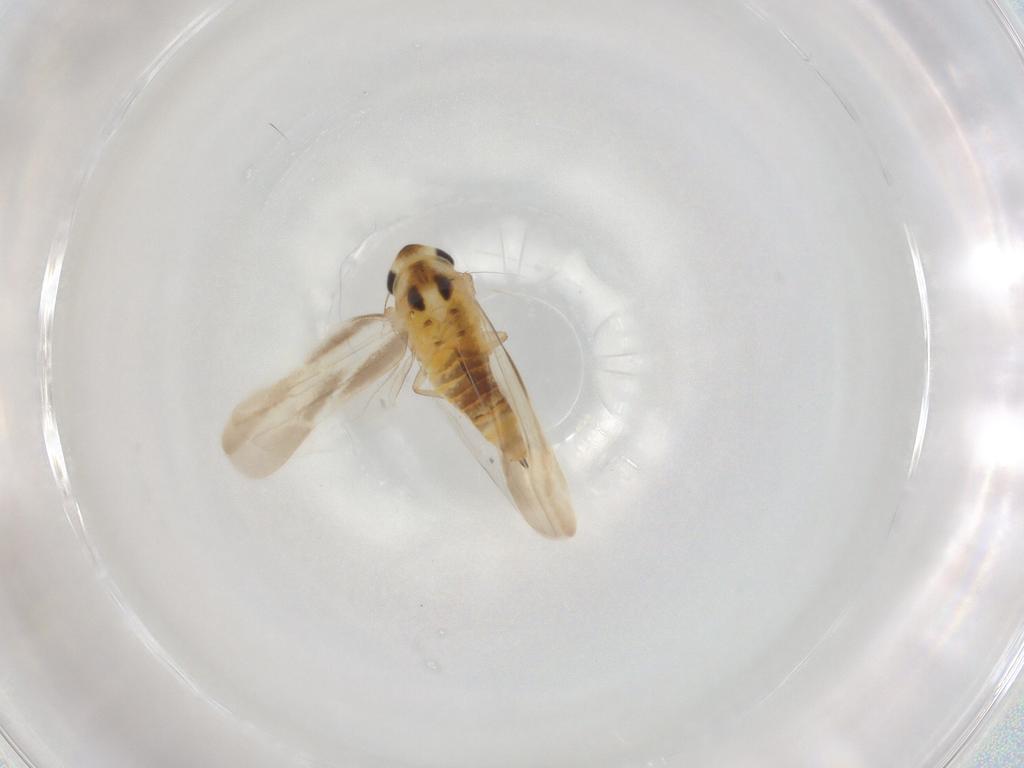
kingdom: Animalia
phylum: Arthropoda
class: Insecta
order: Hemiptera
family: Cicadellidae
